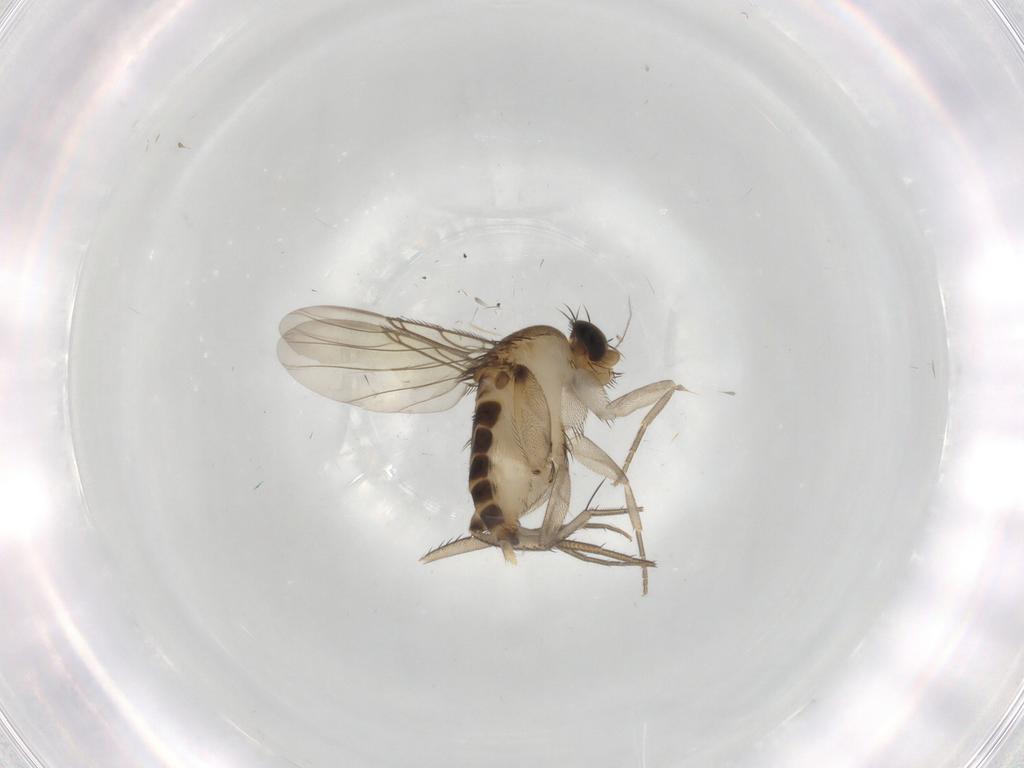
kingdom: Animalia
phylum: Arthropoda
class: Insecta
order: Diptera
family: Phoridae
